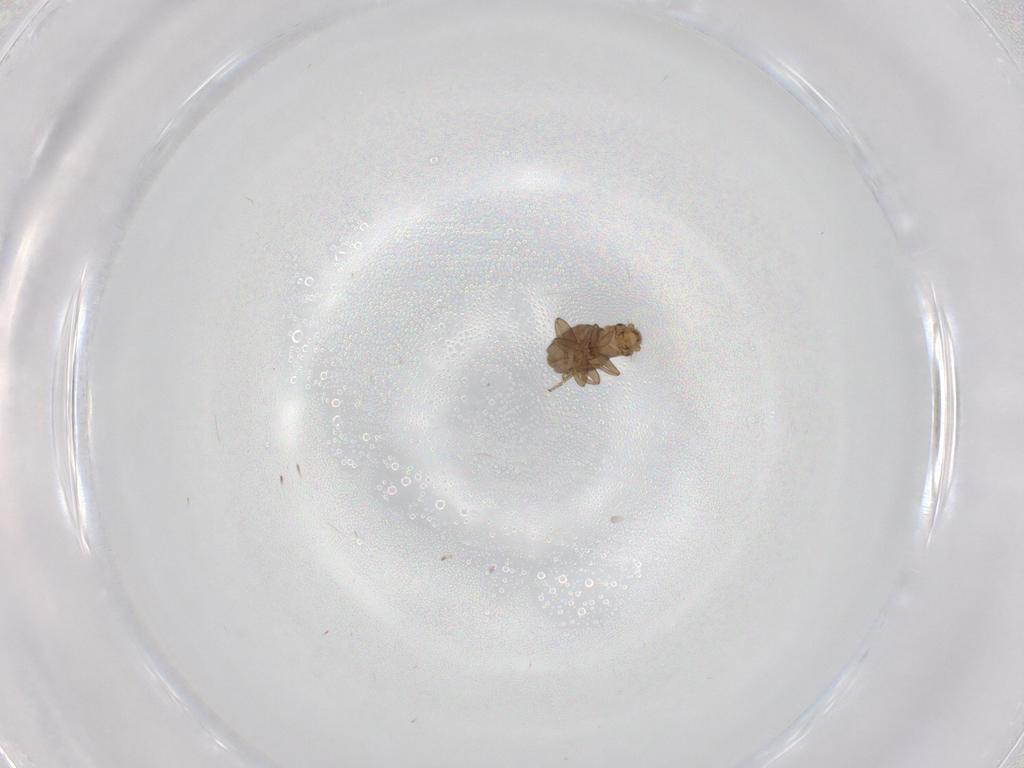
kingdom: Animalia
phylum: Arthropoda
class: Insecta
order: Diptera
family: Phoridae
